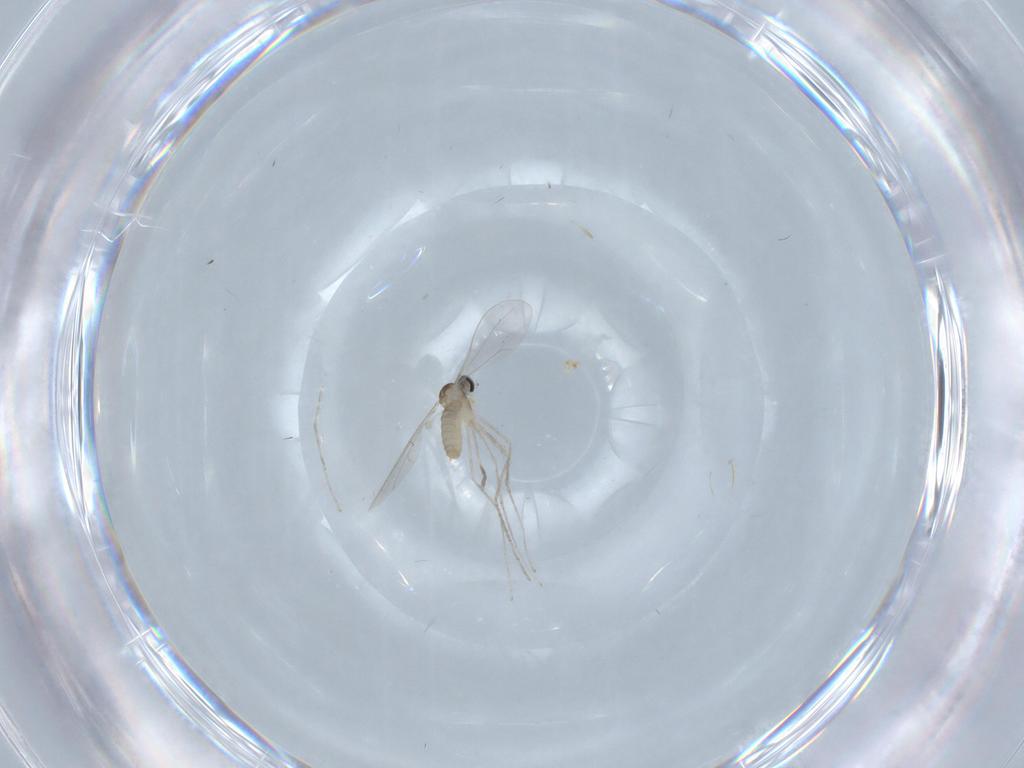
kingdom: Animalia
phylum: Arthropoda
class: Insecta
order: Diptera
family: Cecidomyiidae
